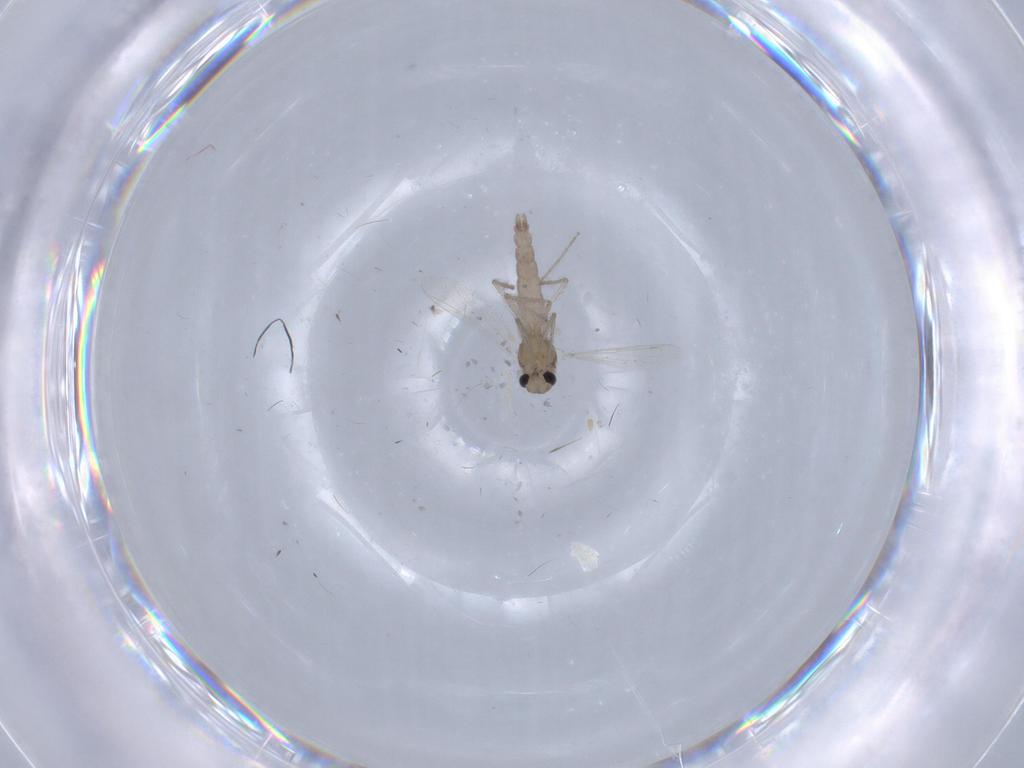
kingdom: Animalia
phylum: Arthropoda
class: Insecta
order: Diptera
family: Chironomidae
